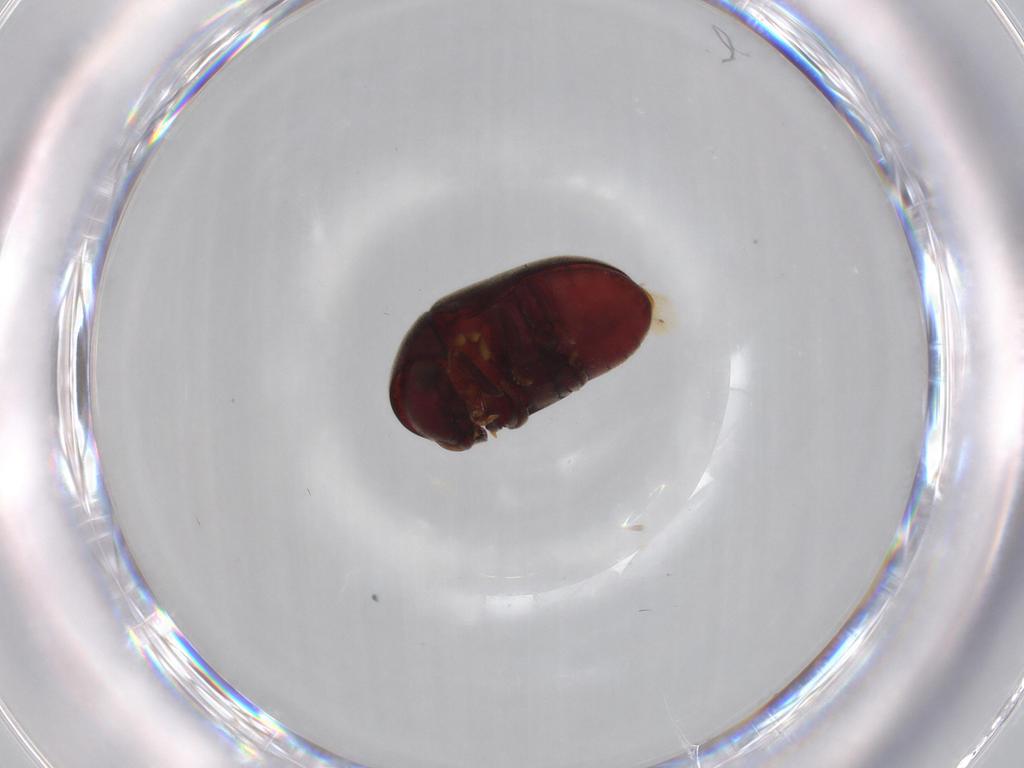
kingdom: Animalia
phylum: Arthropoda
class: Insecta
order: Coleoptera
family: Ptinidae
